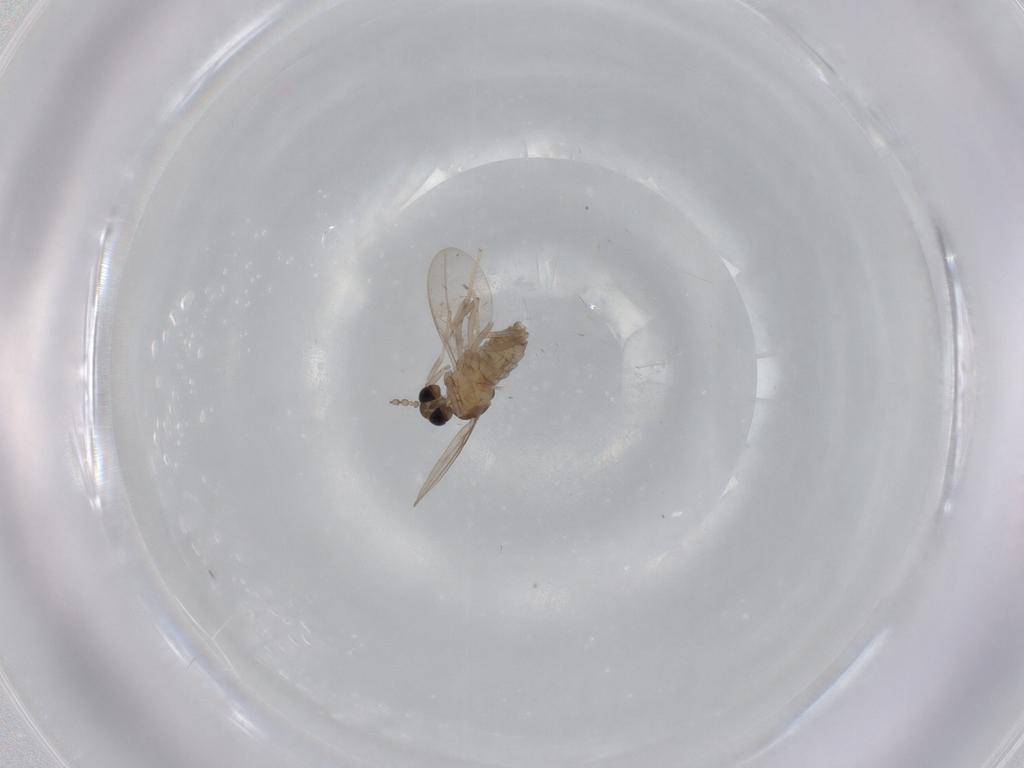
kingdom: Animalia
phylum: Arthropoda
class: Insecta
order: Diptera
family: Cecidomyiidae
